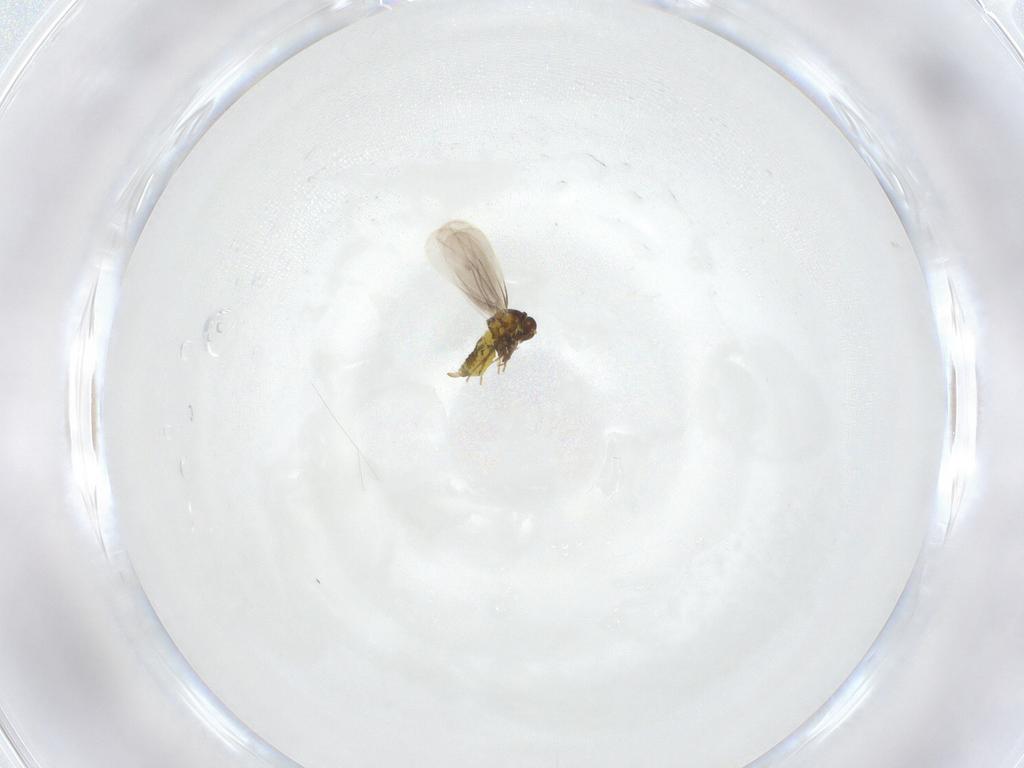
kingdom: Animalia
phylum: Arthropoda
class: Insecta
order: Hemiptera
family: Aleyrodidae
